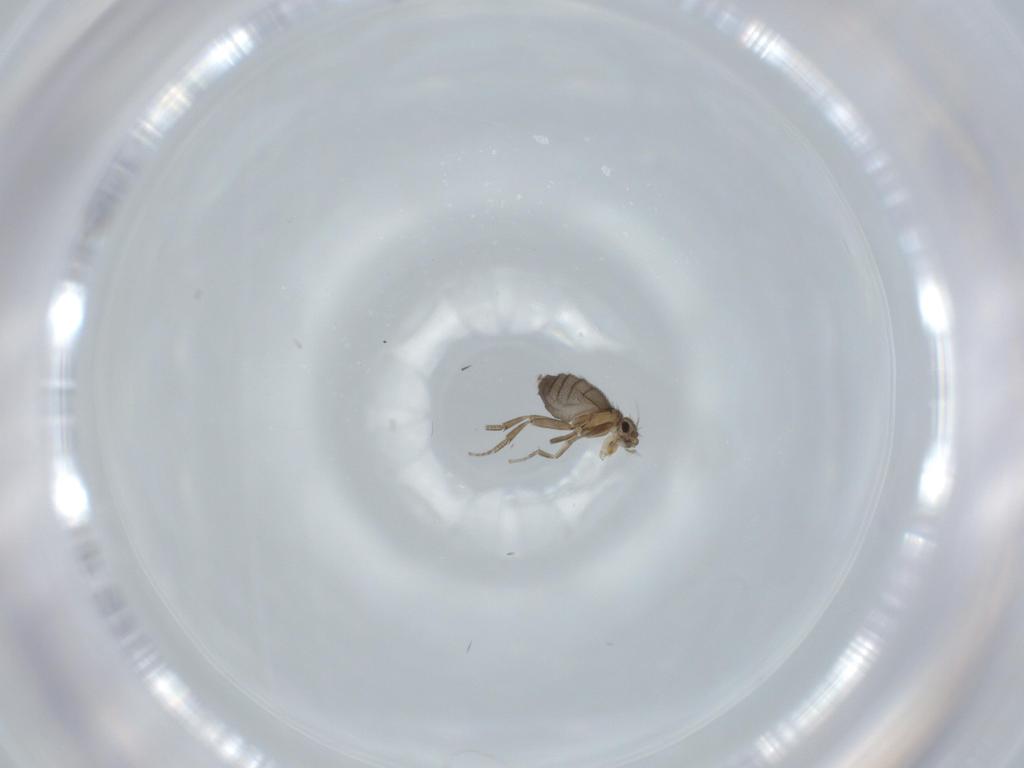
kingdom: Animalia
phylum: Arthropoda
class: Insecta
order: Diptera
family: Phoridae
